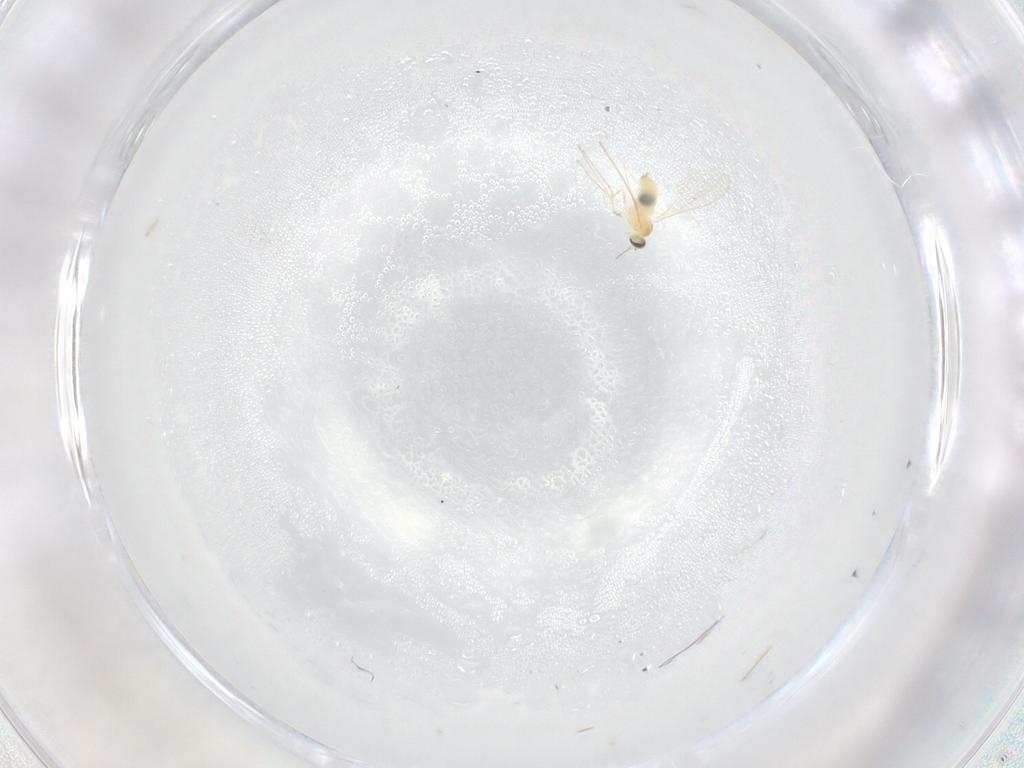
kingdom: Animalia
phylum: Arthropoda
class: Insecta
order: Diptera
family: Cecidomyiidae
